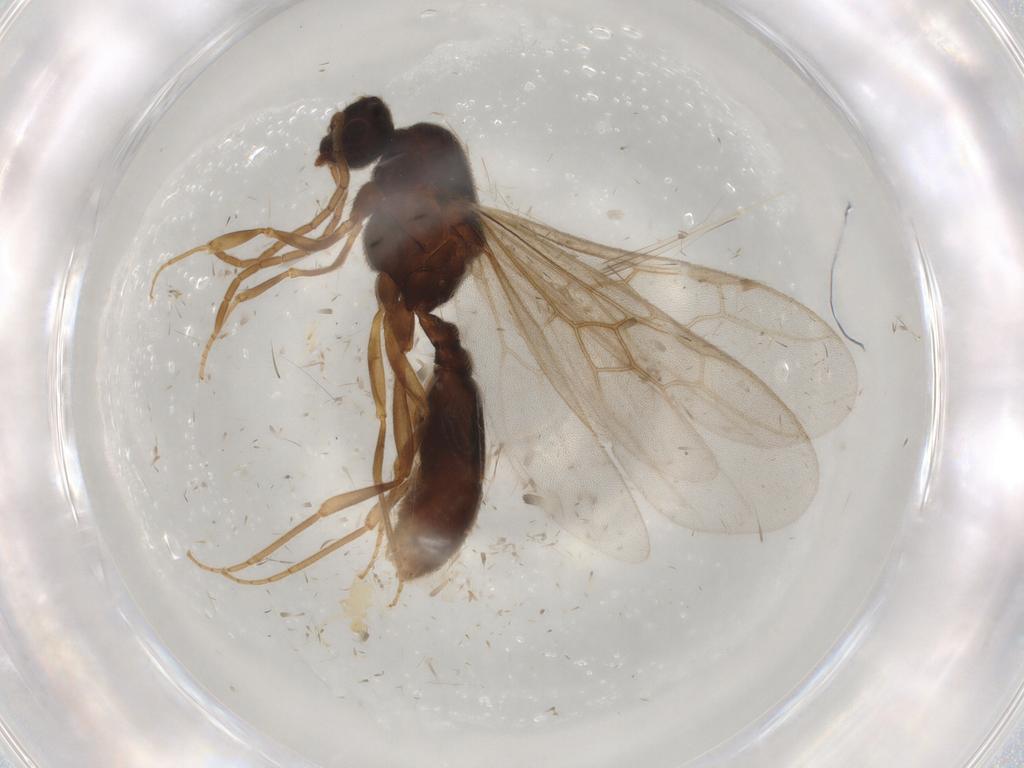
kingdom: Animalia
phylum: Arthropoda
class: Insecta
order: Hymenoptera
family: Formicidae
